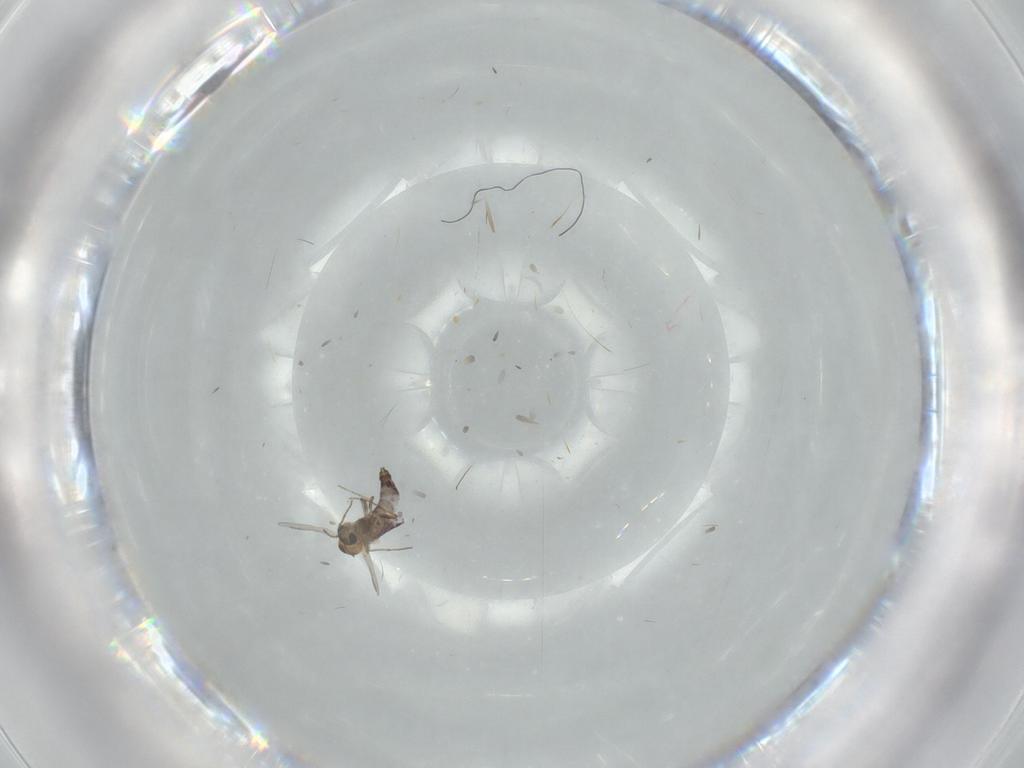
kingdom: Animalia
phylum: Arthropoda
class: Insecta
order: Diptera
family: Chironomidae
